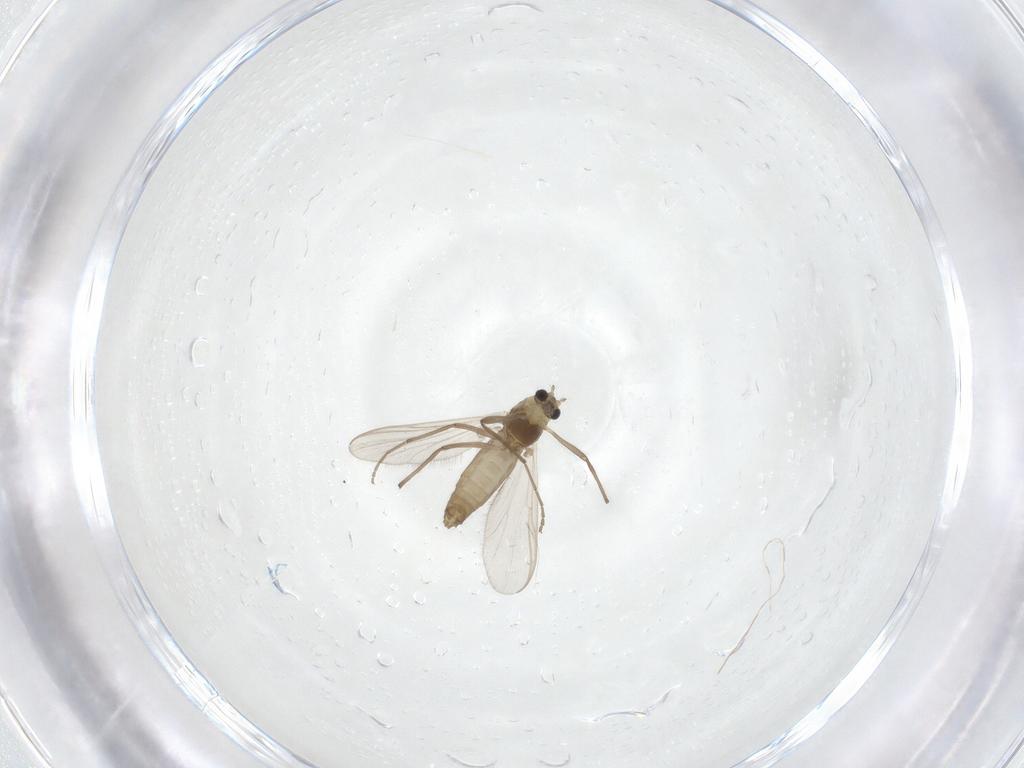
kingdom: Animalia
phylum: Arthropoda
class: Insecta
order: Diptera
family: Chironomidae
